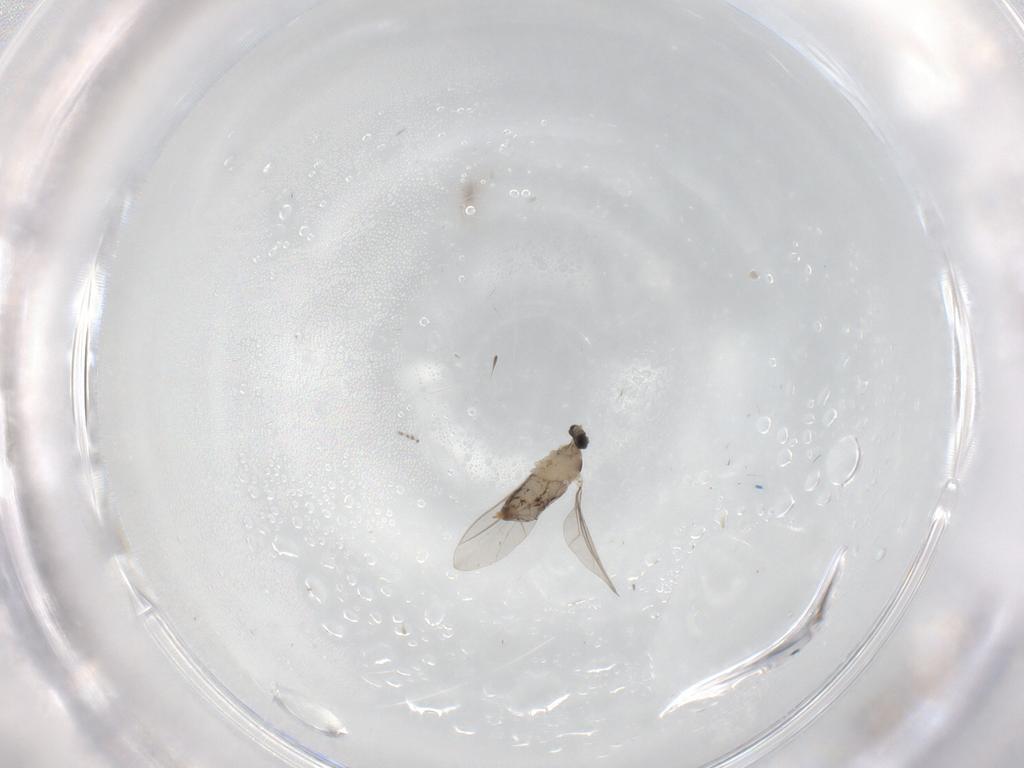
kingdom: Animalia
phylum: Arthropoda
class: Insecta
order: Diptera
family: Cecidomyiidae
